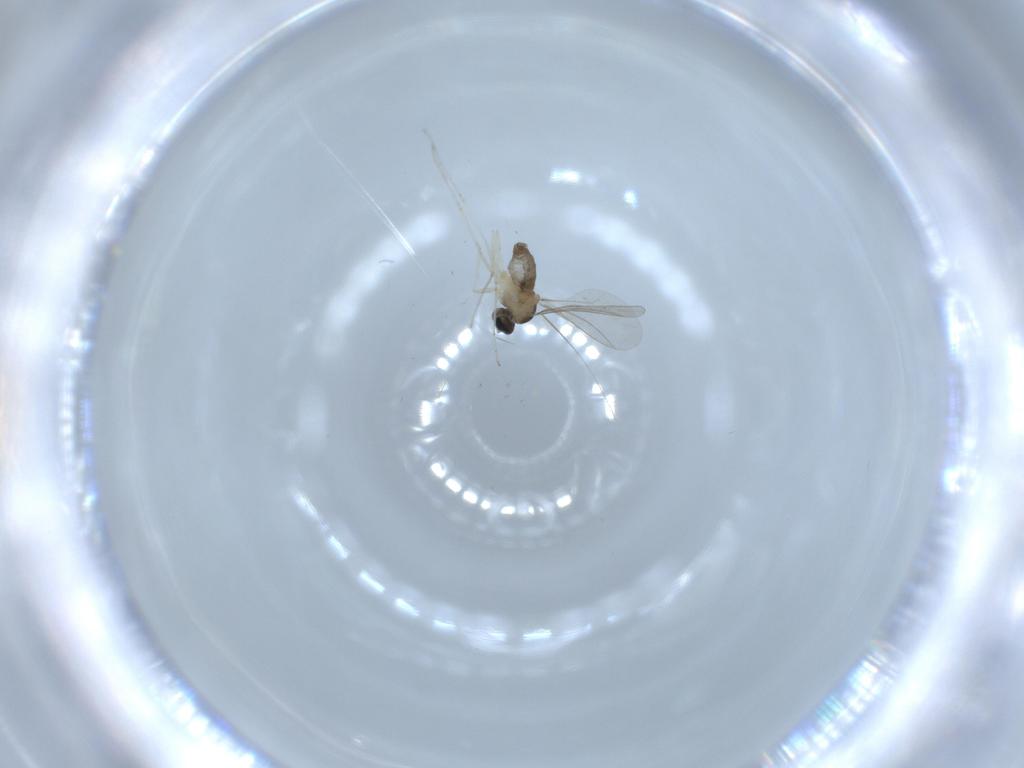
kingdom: Animalia
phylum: Arthropoda
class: Insecta
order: Diptera
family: Cecidomyiidae
